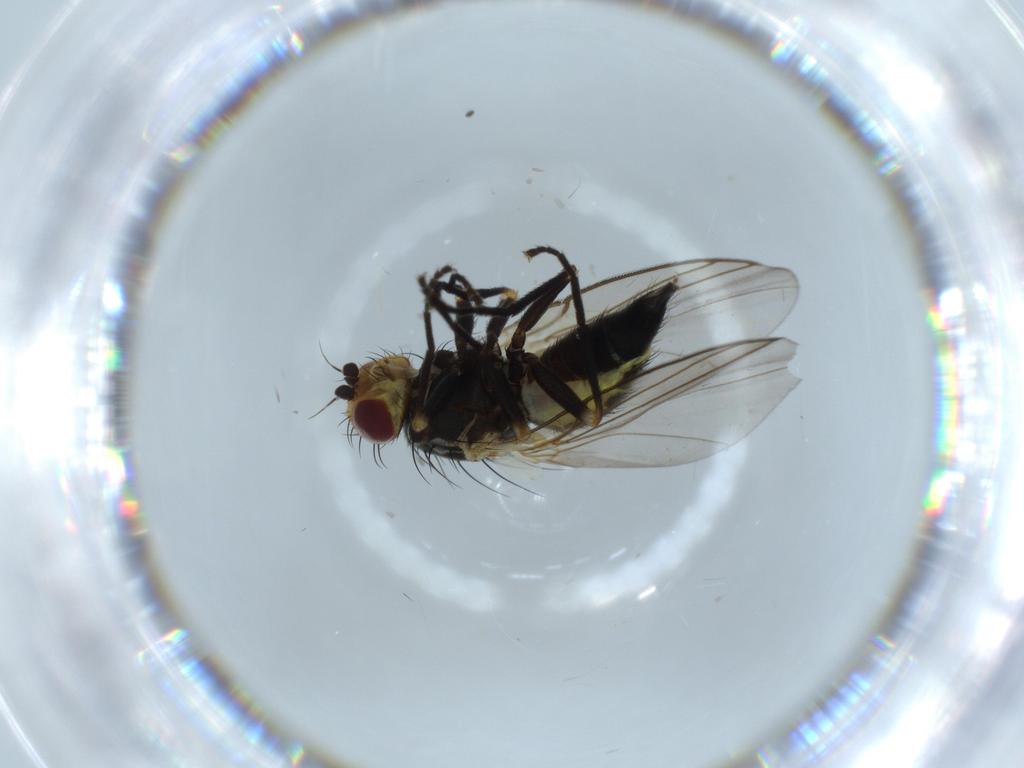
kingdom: Animalia
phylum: Arthropoda
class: Insecta
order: Diptera
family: Agromyzidae
